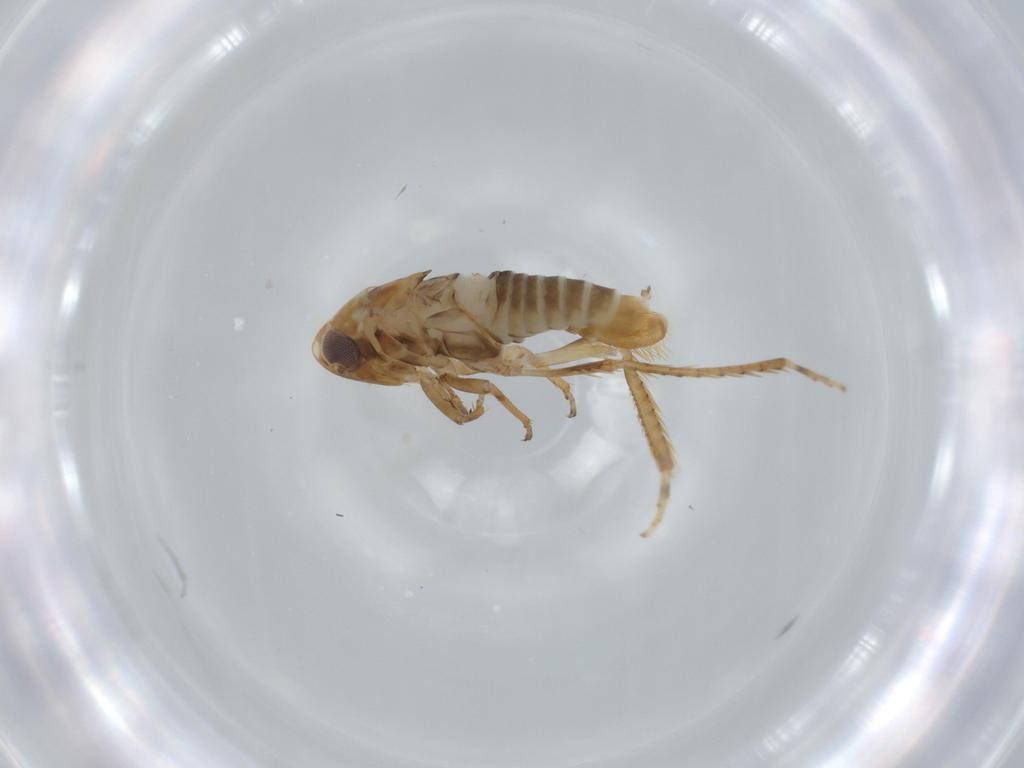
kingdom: Animalia
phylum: Arthropoda
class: Insecta
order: Hemiptera
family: Cicadellidae
